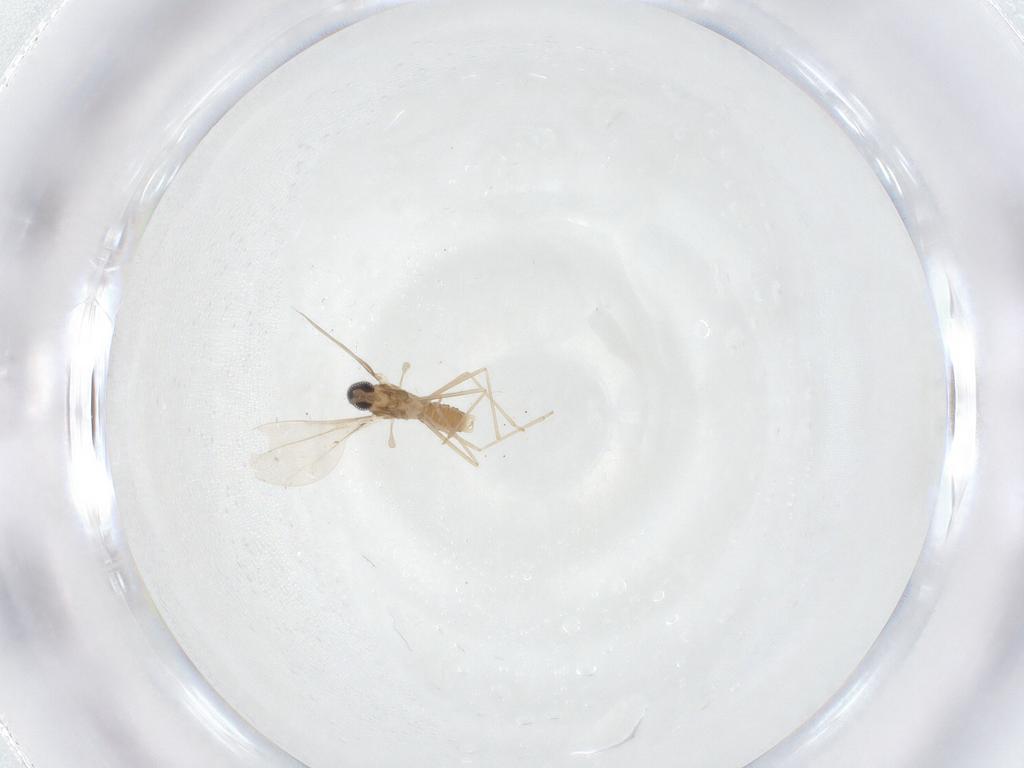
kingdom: Animalia
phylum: Arthropoda
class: Insecta
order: Diptera
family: Cecidomyiidae
